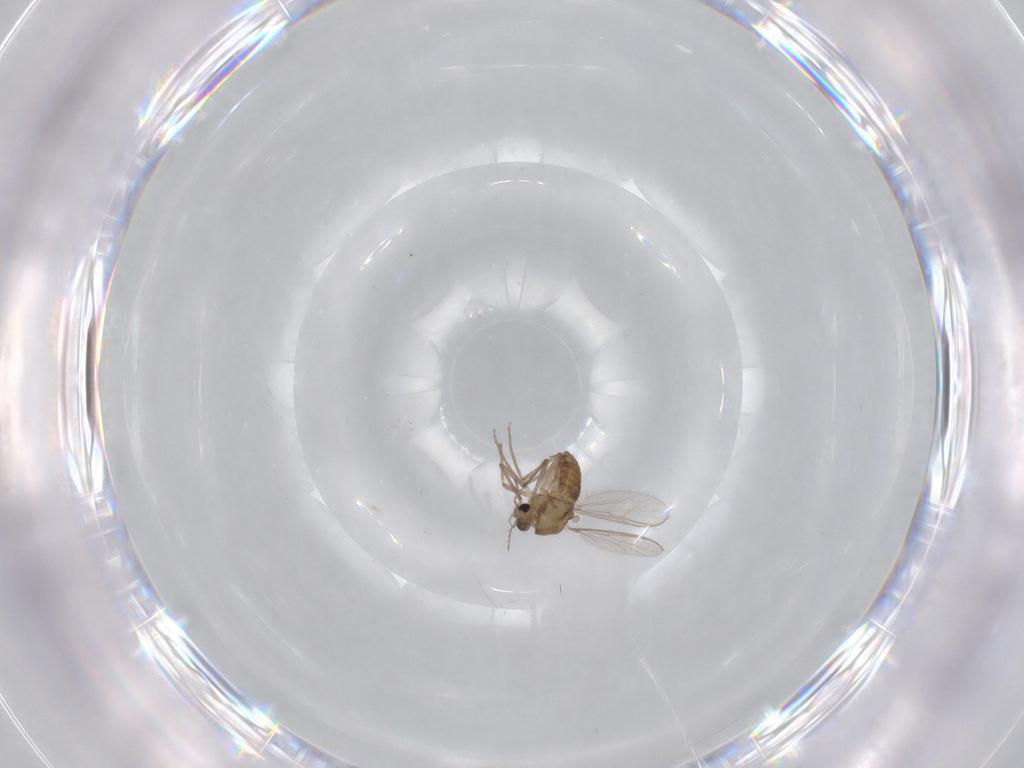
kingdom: Animalia
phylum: Arthropoda
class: Insecta
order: Diptera
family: Chironomidae
